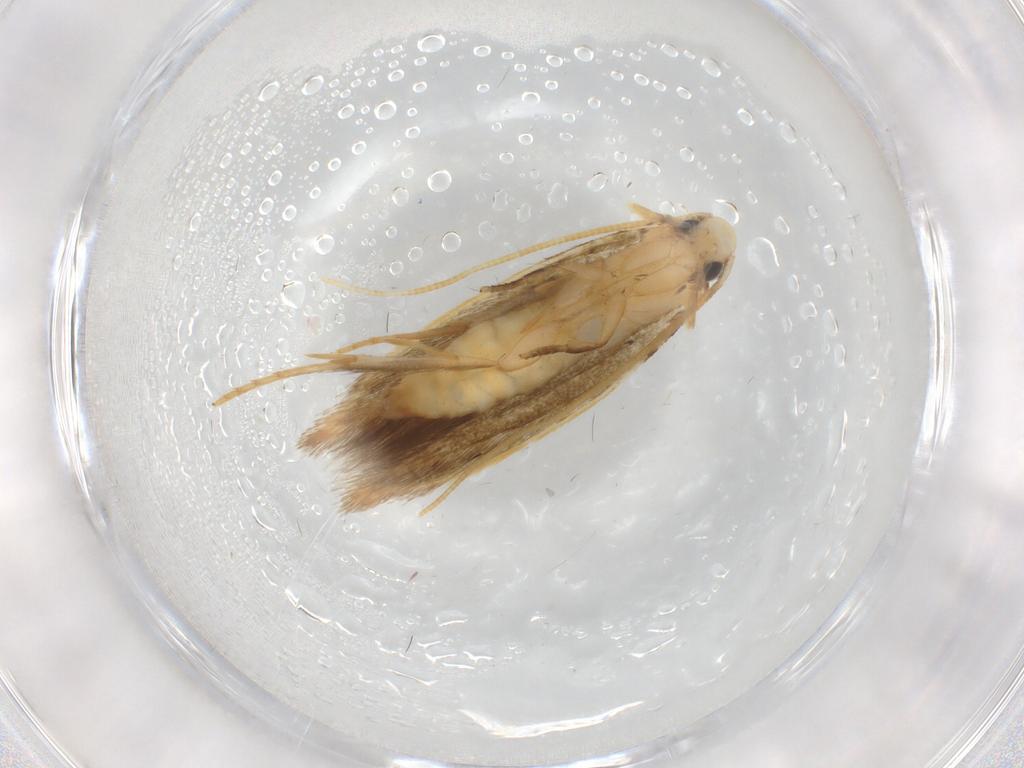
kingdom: Animalia
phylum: Arthropoda
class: Insecta
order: Lepidoptera
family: Tineidae
